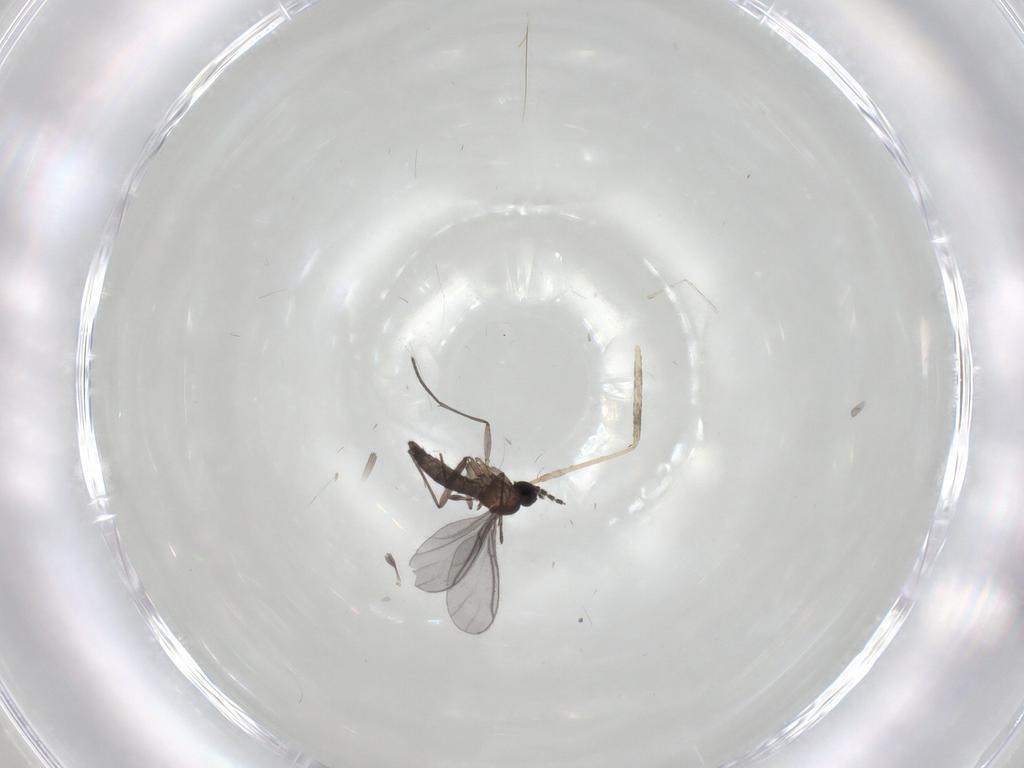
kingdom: Animalia
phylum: Arthropoda
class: Insecta
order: Diptera
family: Cecidomyiidae
